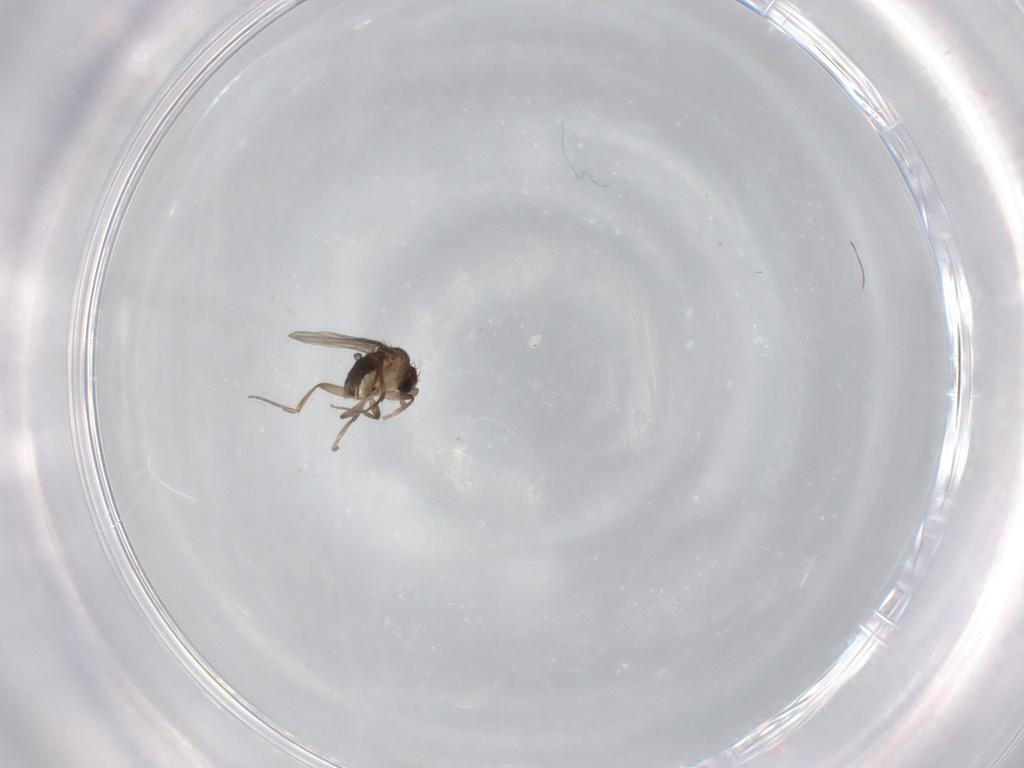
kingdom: Animalia
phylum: Arthropoda
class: Insecta
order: Diptera
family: Phoridae
